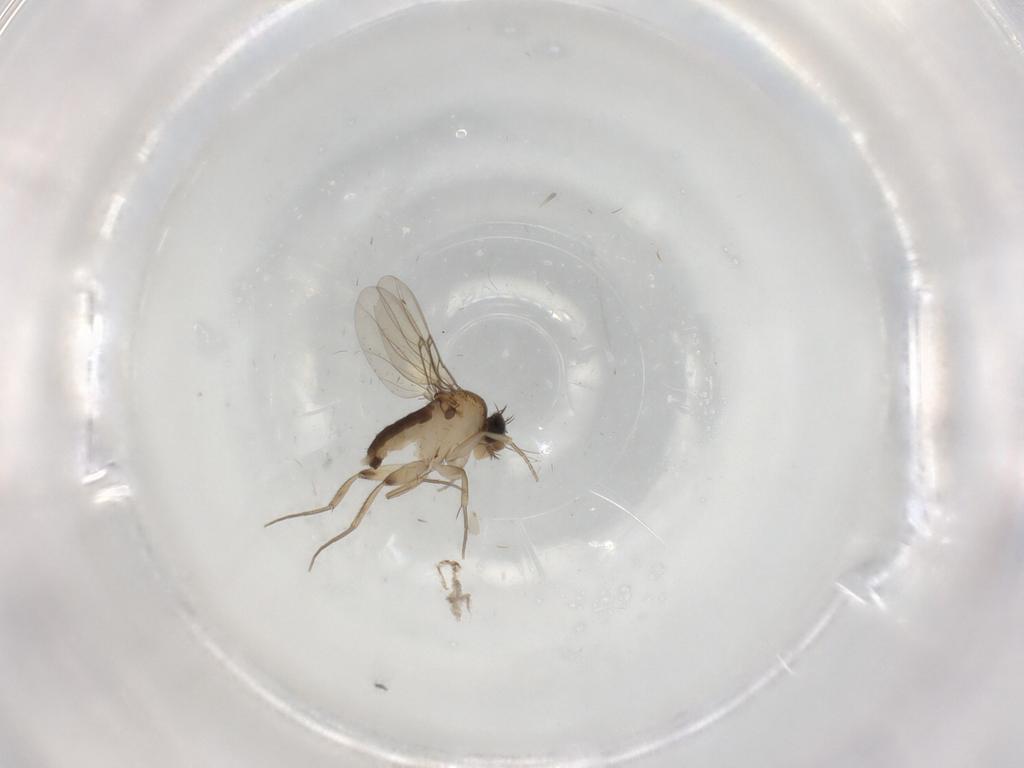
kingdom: Animalia
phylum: Arthropoda
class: Insecta
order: Diptera
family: Phoridae
